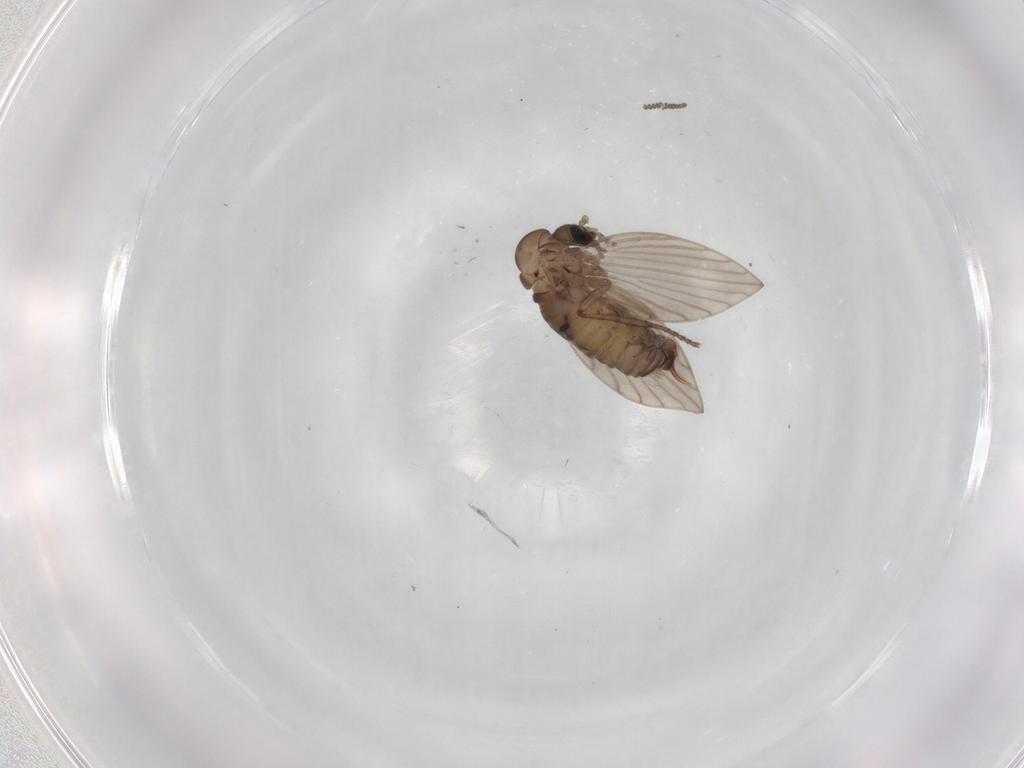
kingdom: Animalia
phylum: Arthropoda
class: Insecta
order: Diptera
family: Psychodidae
